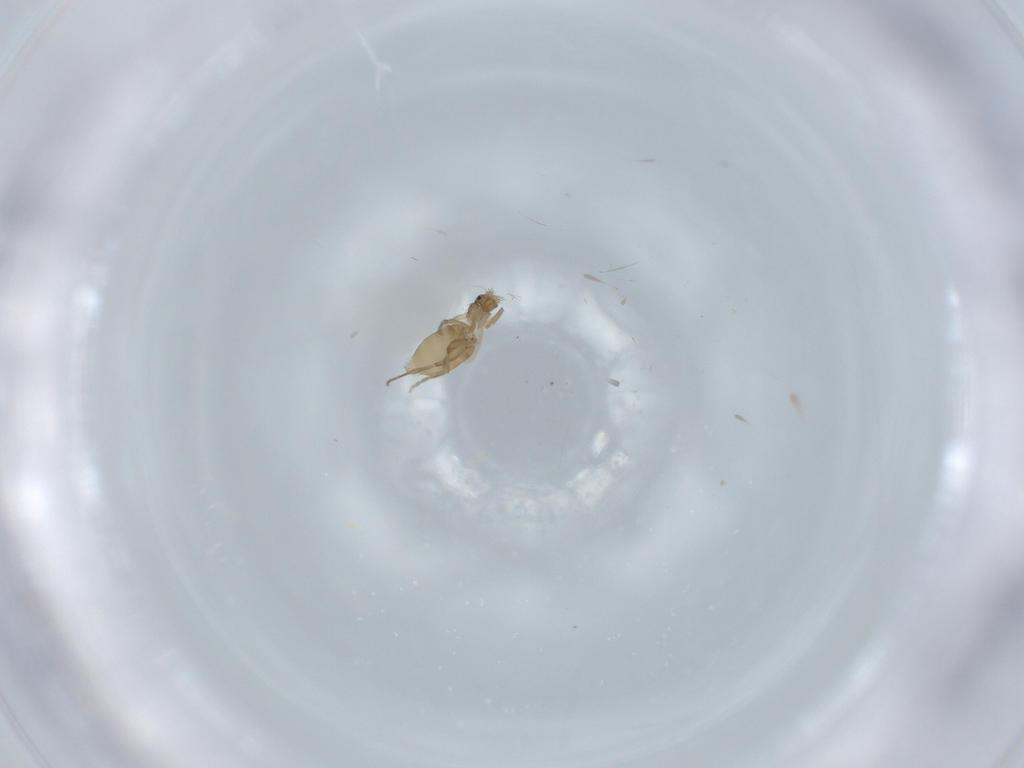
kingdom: Animalia
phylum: Arthropoda
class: Insecta
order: Diptera
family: Phoridae
